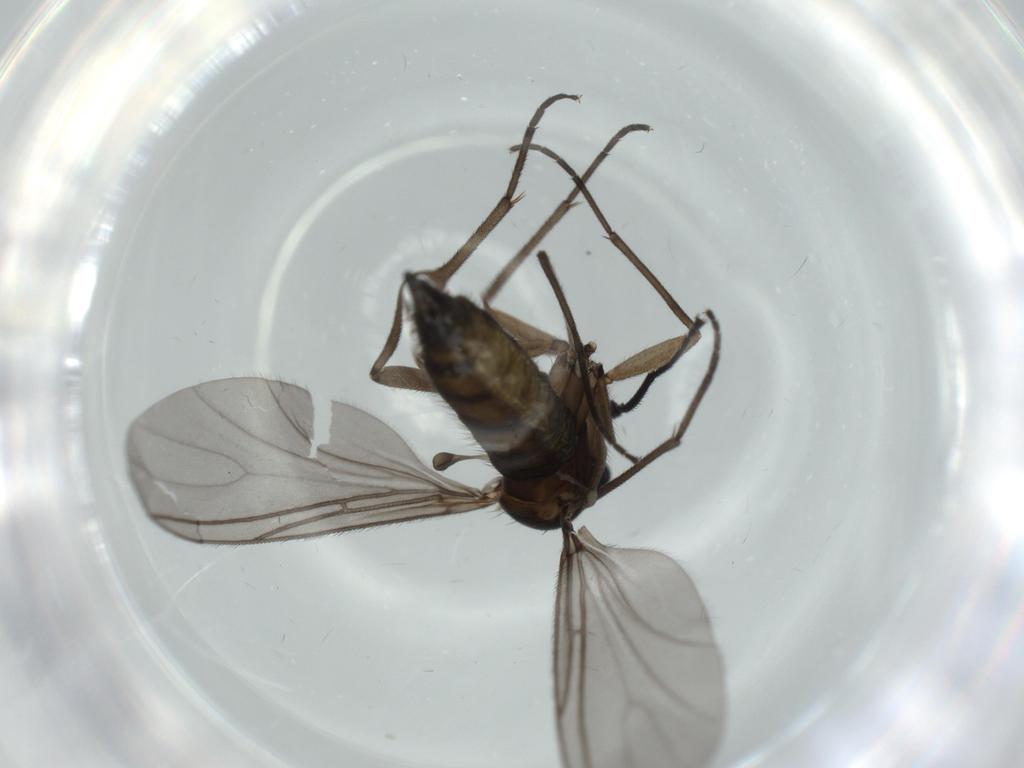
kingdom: Animalia
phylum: Arthropoda
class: Insecta
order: Diptera
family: Sciaridae
